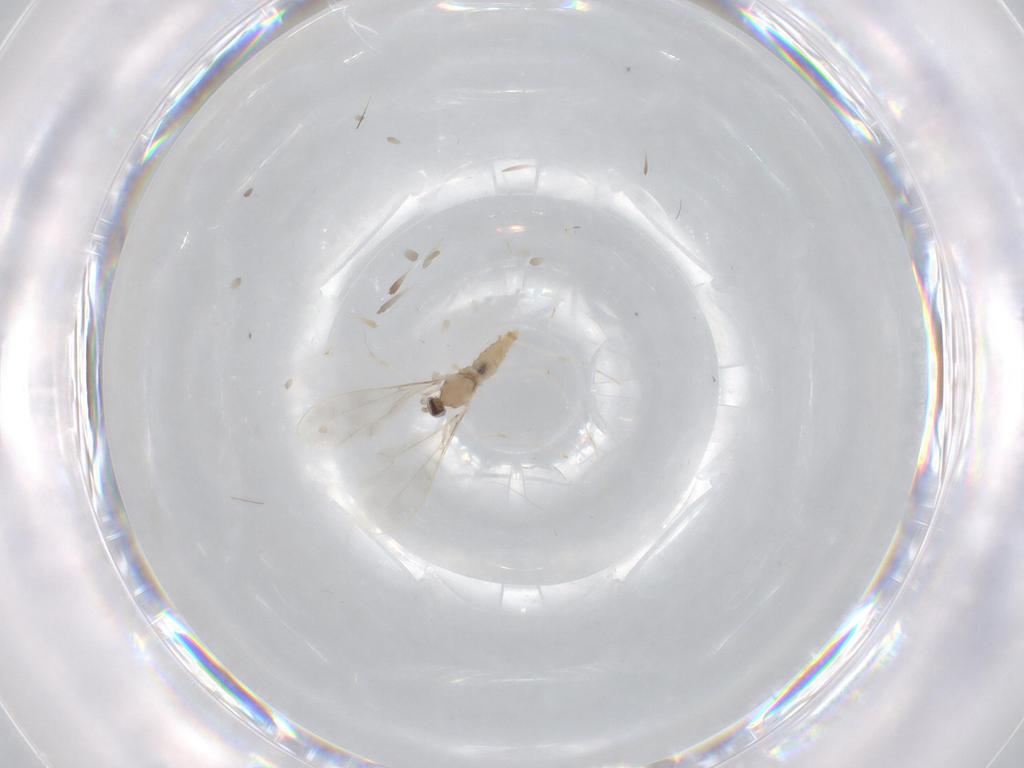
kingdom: Animalia
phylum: Arthropoda
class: Insecta
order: Diptera
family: Cecidomyiidae
